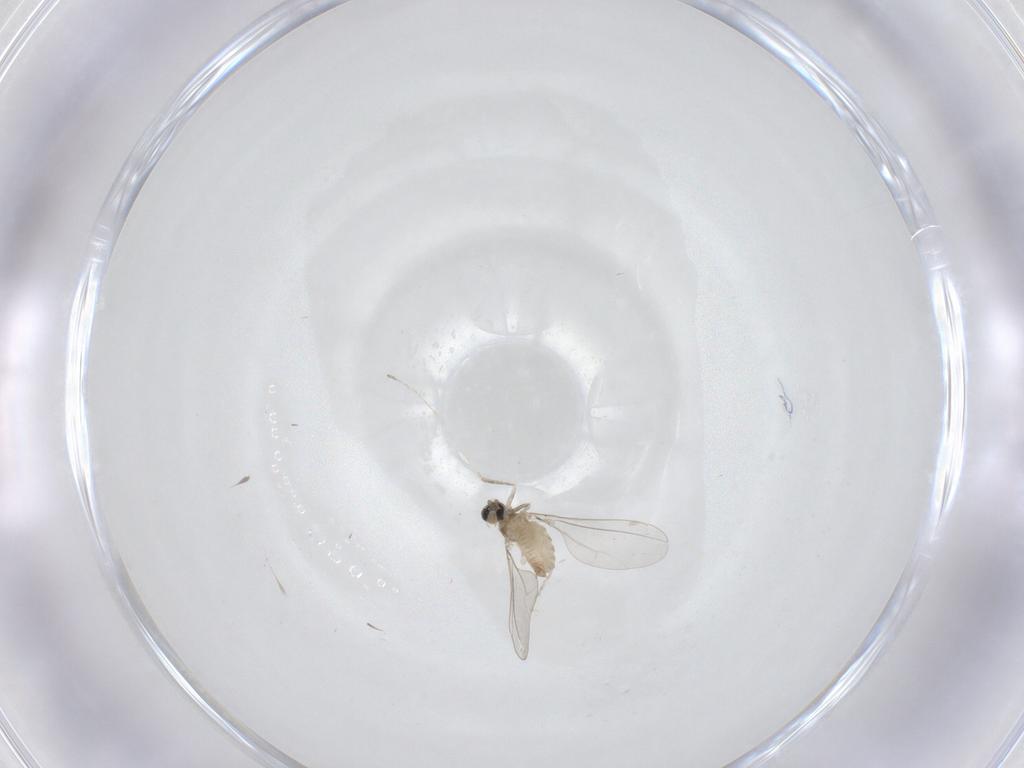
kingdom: Animalia
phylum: Arthropoda
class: Insecta
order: Diptera
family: Cecidomyiidae
